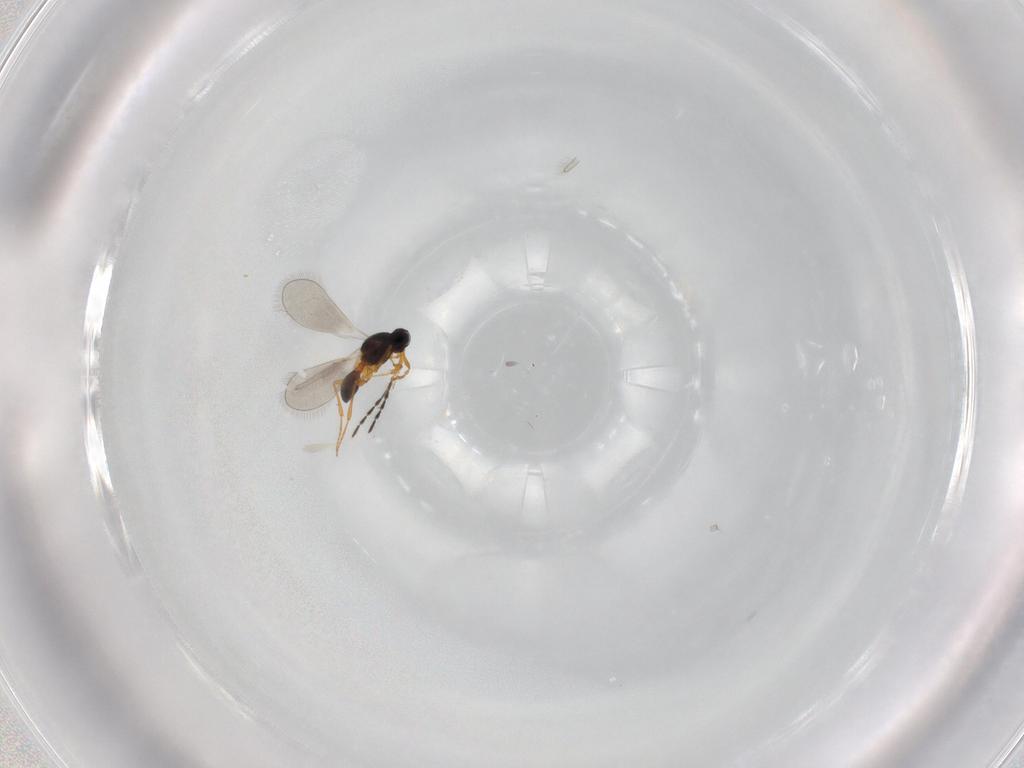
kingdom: Animalia
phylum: Arthropoda
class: Insecta
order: Hymenoptera
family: Platygastridae
